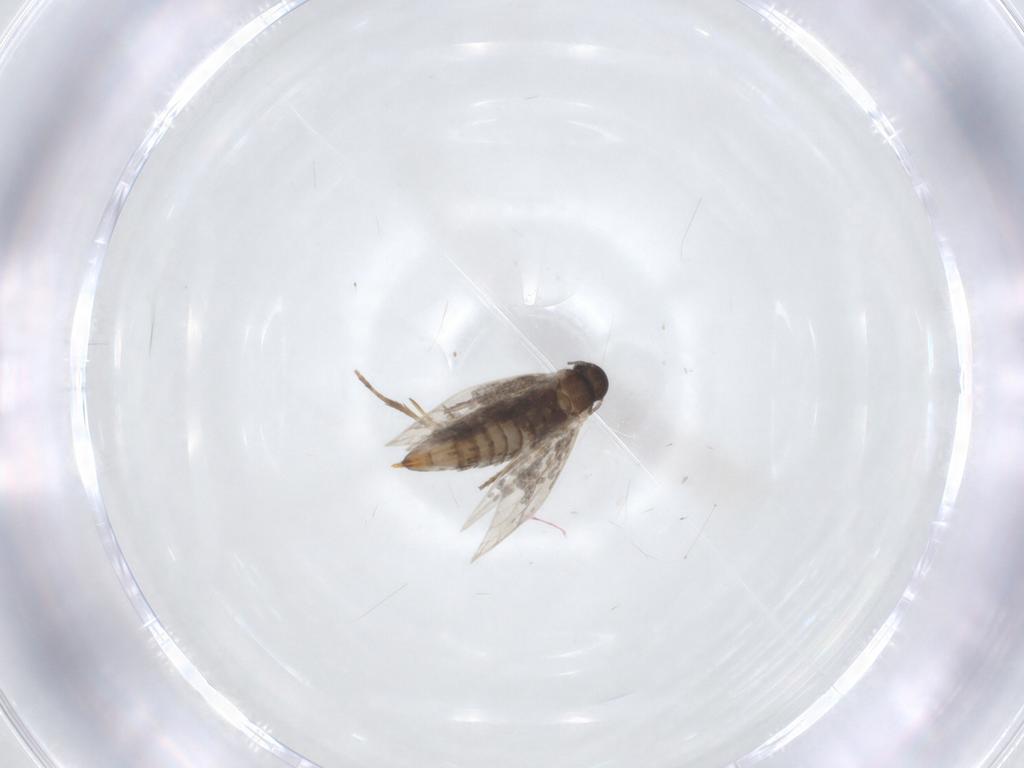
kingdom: Animalia
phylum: Arthropoda
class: Insecta
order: Lepidoptera
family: Heliozelidae
